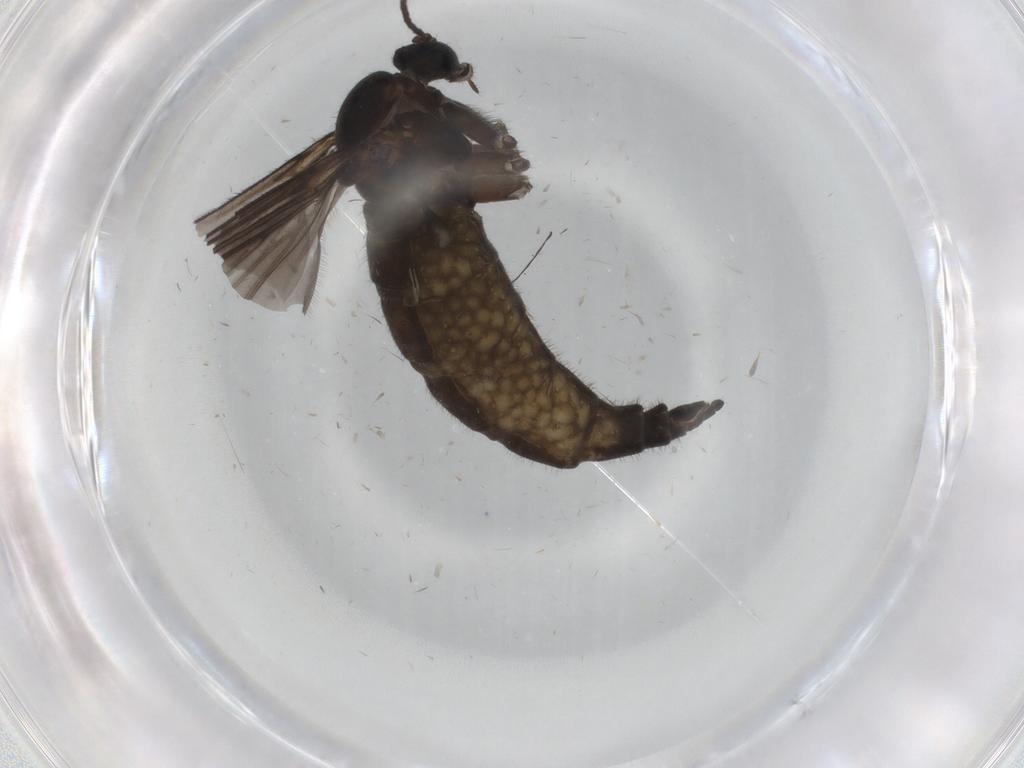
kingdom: Animalia
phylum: Arthropoda
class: Insecta
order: Diptera
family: Sciaridae
